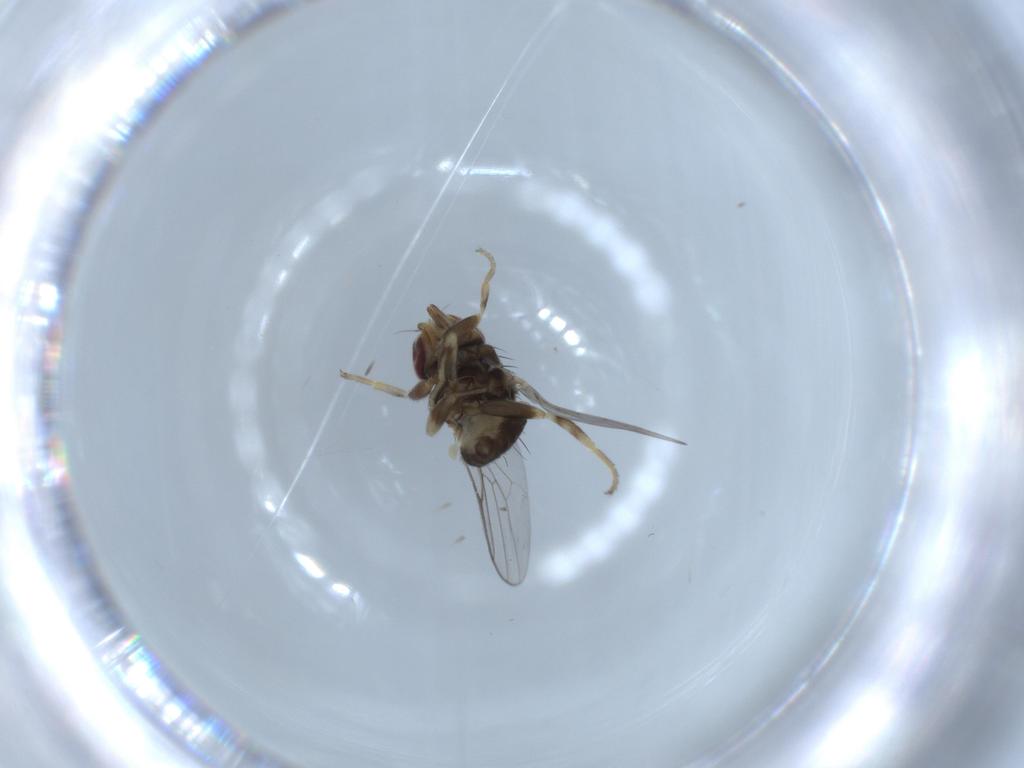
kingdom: Animalia
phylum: Arthropoda
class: Insecta
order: Diptera
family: Chloropidae
